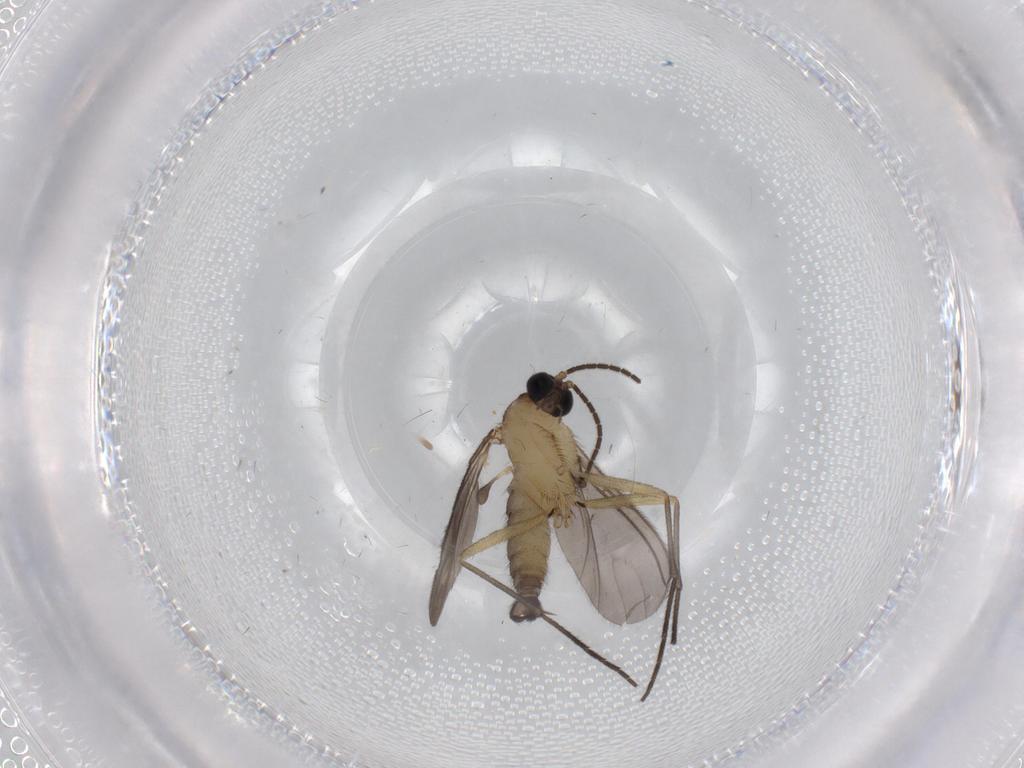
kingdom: Animalia
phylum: Arthropoda
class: Insecta
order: Diptera
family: Sciaridae
